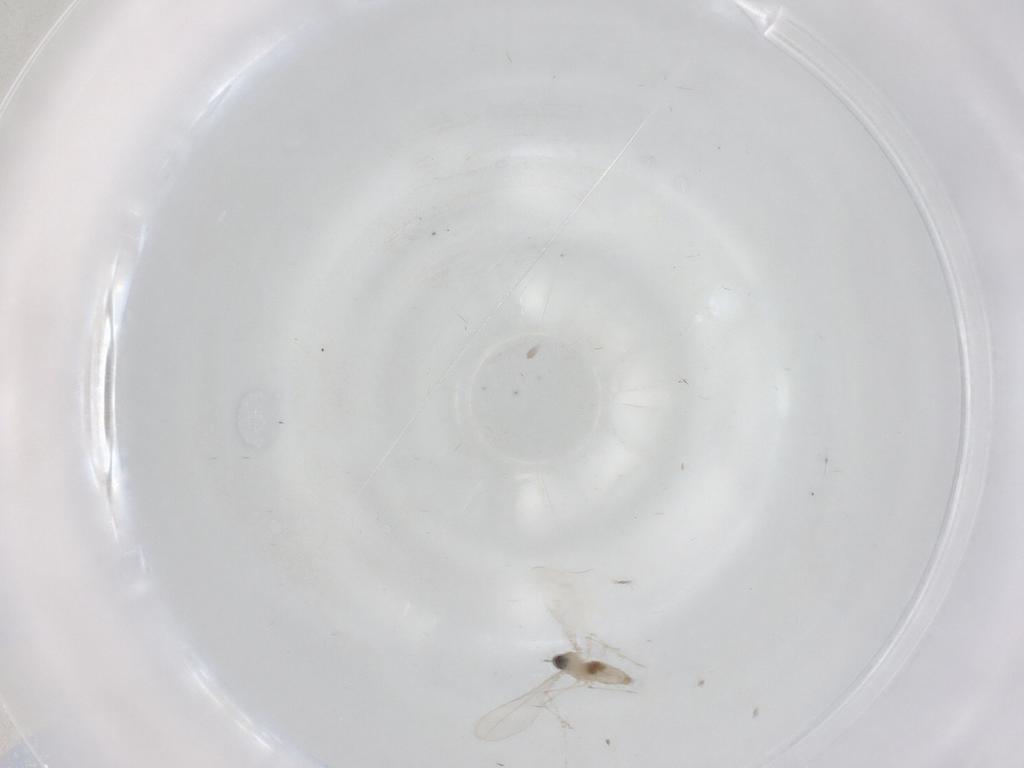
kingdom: Animalia
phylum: Arthropoda
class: Insecta
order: Diptera
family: Cecidomyiidae
